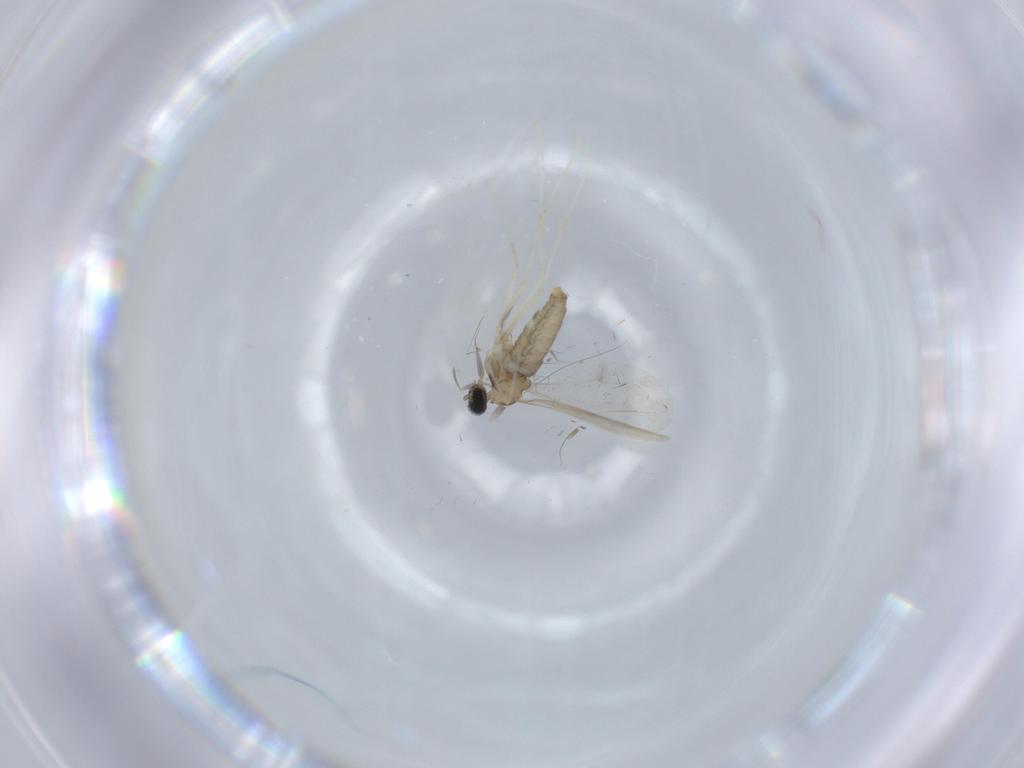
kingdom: Animalia
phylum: Arthropoda
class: Insecta
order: Diptera
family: Cecidomyiidae
